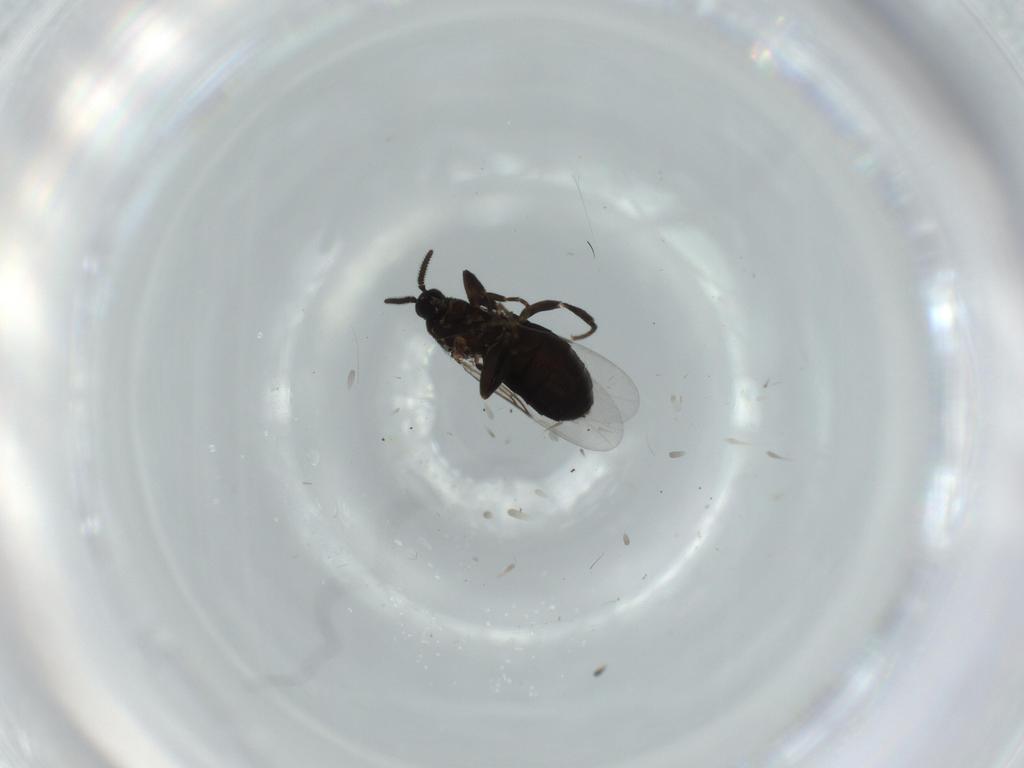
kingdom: Animalia
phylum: Arthropoda
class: Insecta
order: Diptera
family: Scatopsidae
